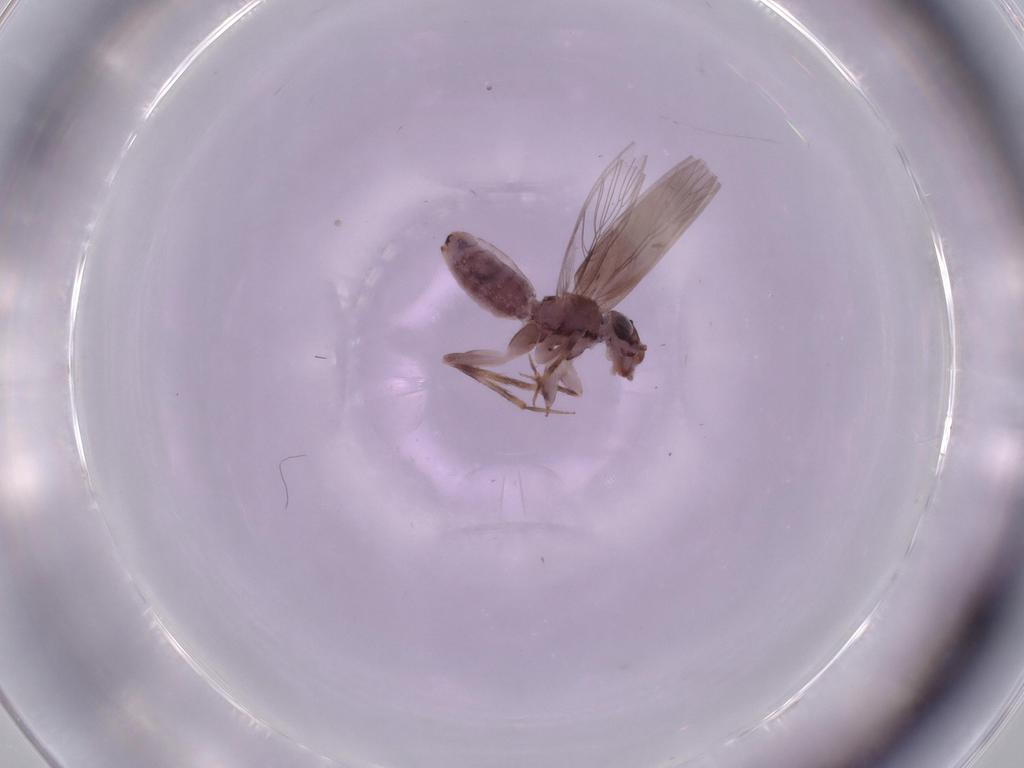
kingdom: Animalia
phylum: Arthropoda
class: Insecta
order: Psocodea
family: Lepidopsocidae
